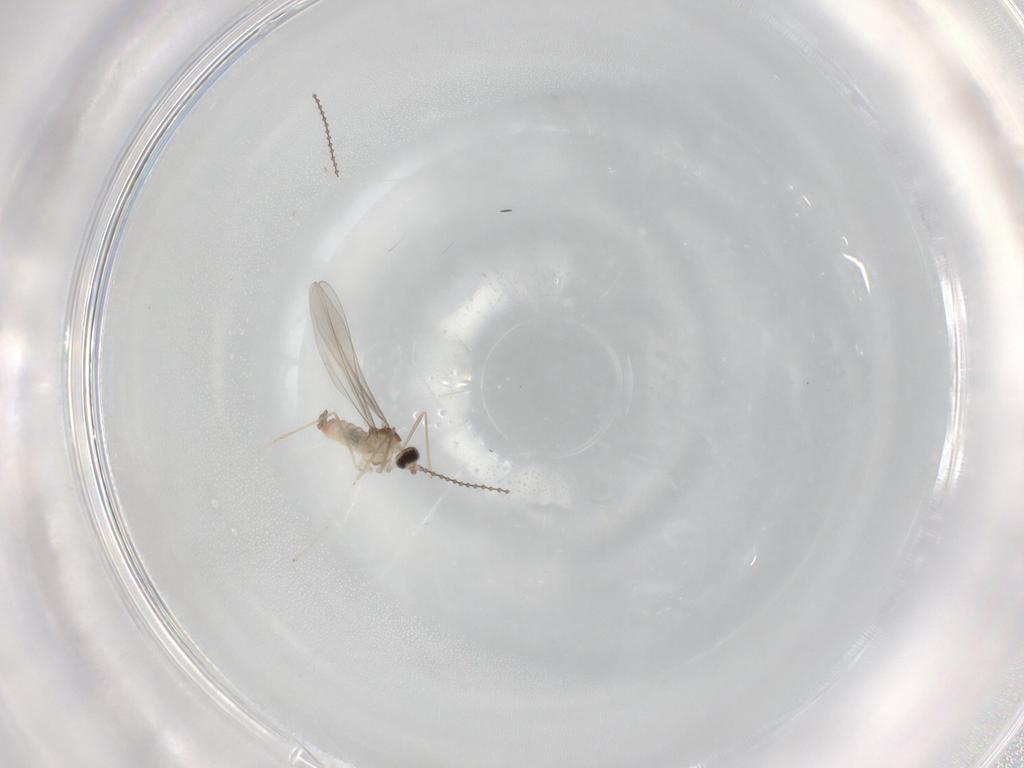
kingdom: Animalia
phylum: Arthropoda
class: Insecta
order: Diptera
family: Cecidomyiidae
